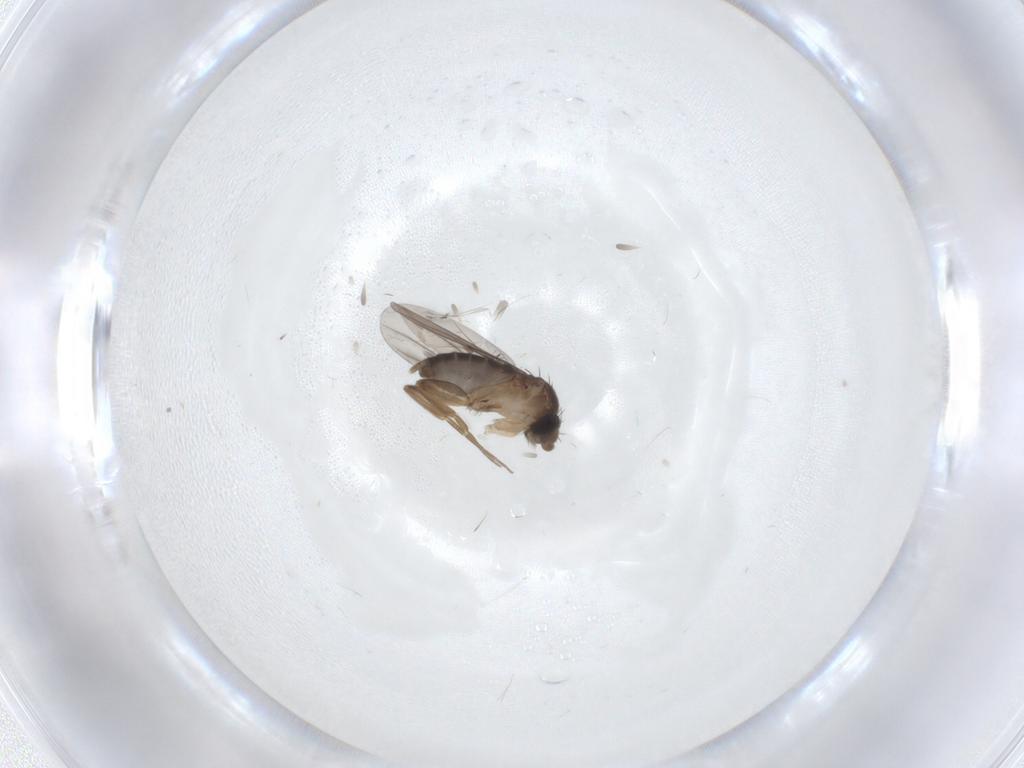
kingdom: Animalia
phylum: Arthropoda
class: Insecta
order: Diptera
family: Phoridae
